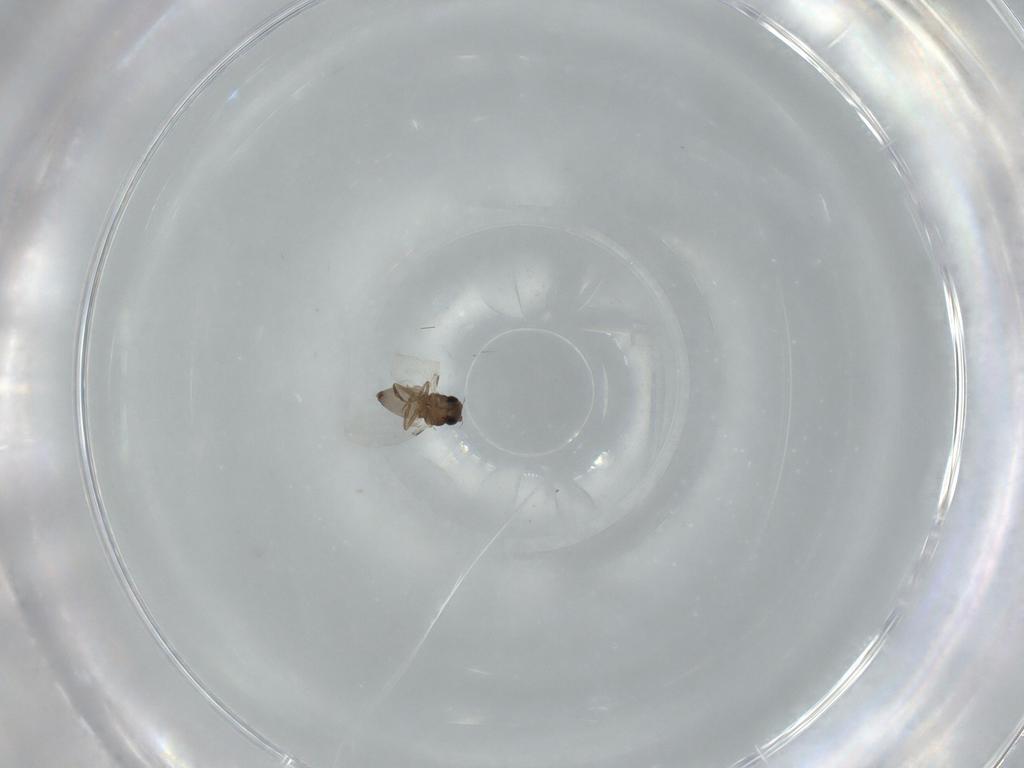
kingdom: Animalia
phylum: Arthropoda
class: Insecta
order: Diptera
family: Phoridae
